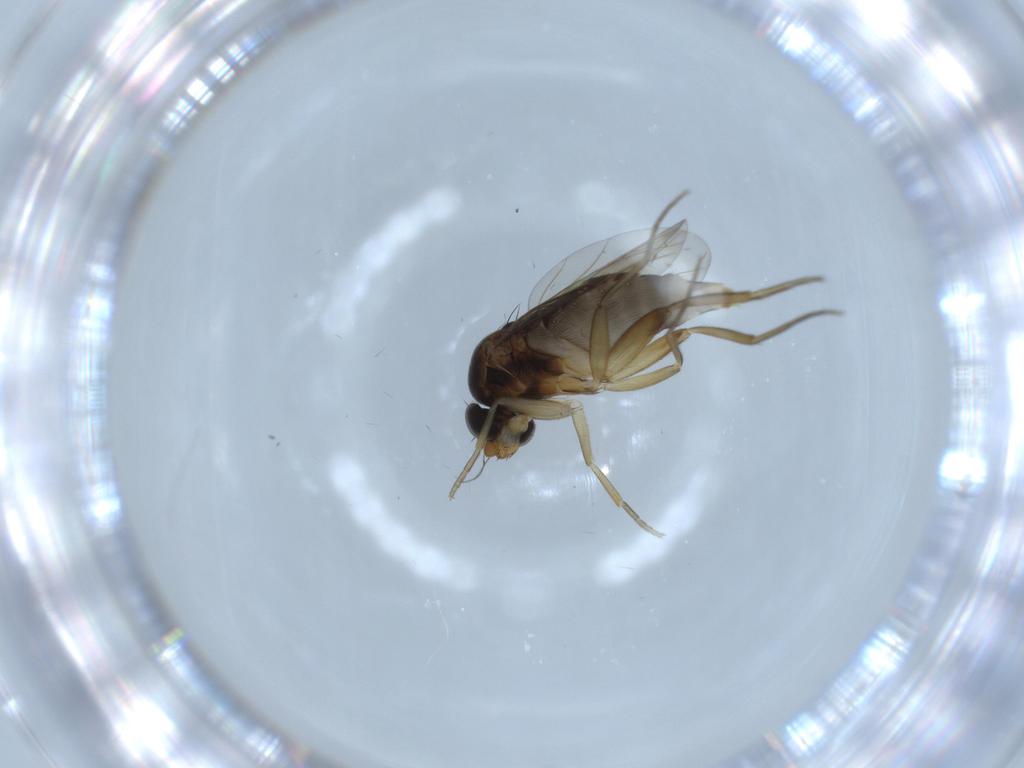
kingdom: Animalia
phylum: Arthropoda
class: Insecta
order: Diptera
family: Phoridae
